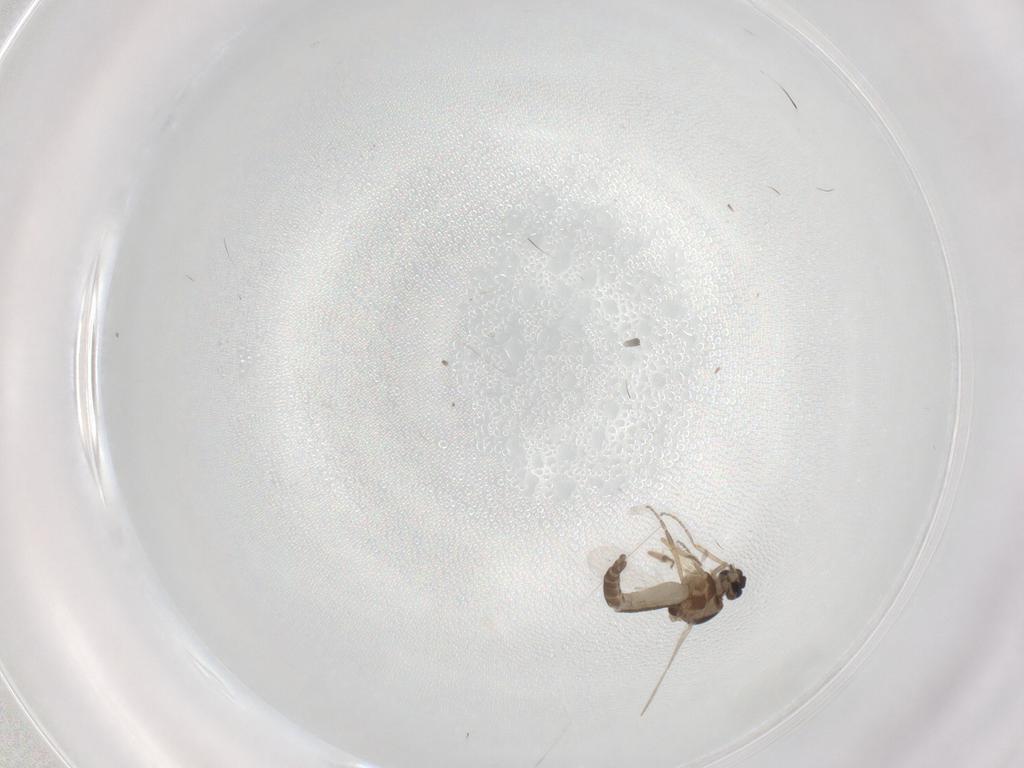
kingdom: Animalia
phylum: Arthropoda
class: Insecta
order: Diptera
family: Ceratopogonidae
